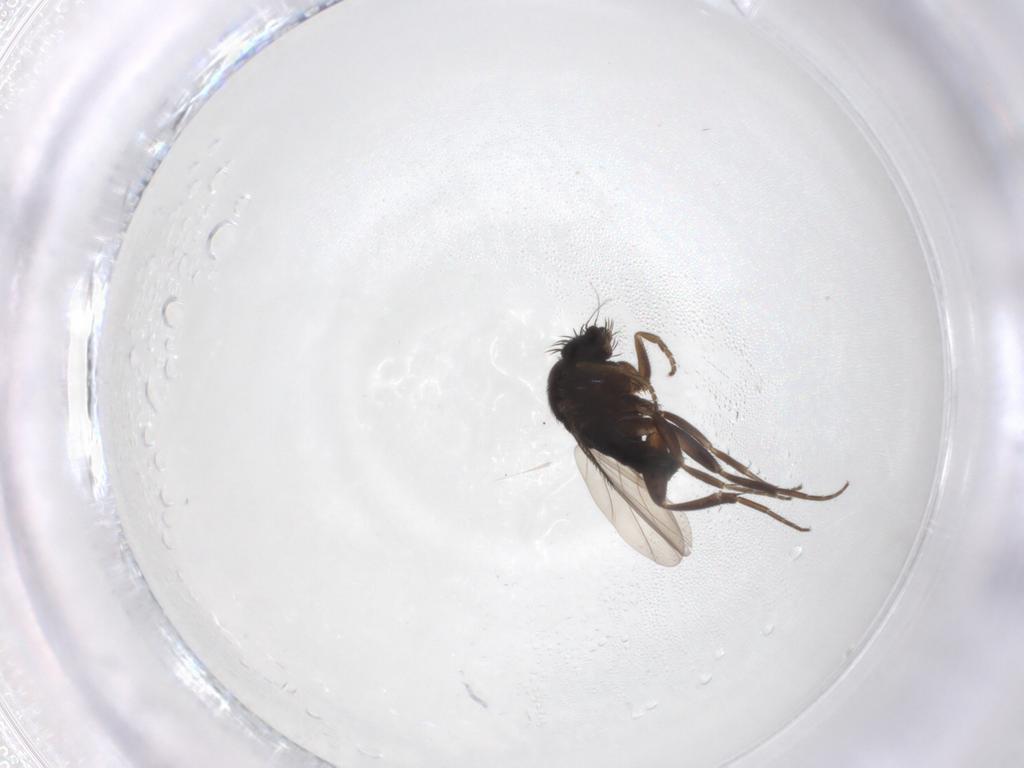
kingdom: Animalia
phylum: Arthropoda
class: Insecta
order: Diptera
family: Phoridae
